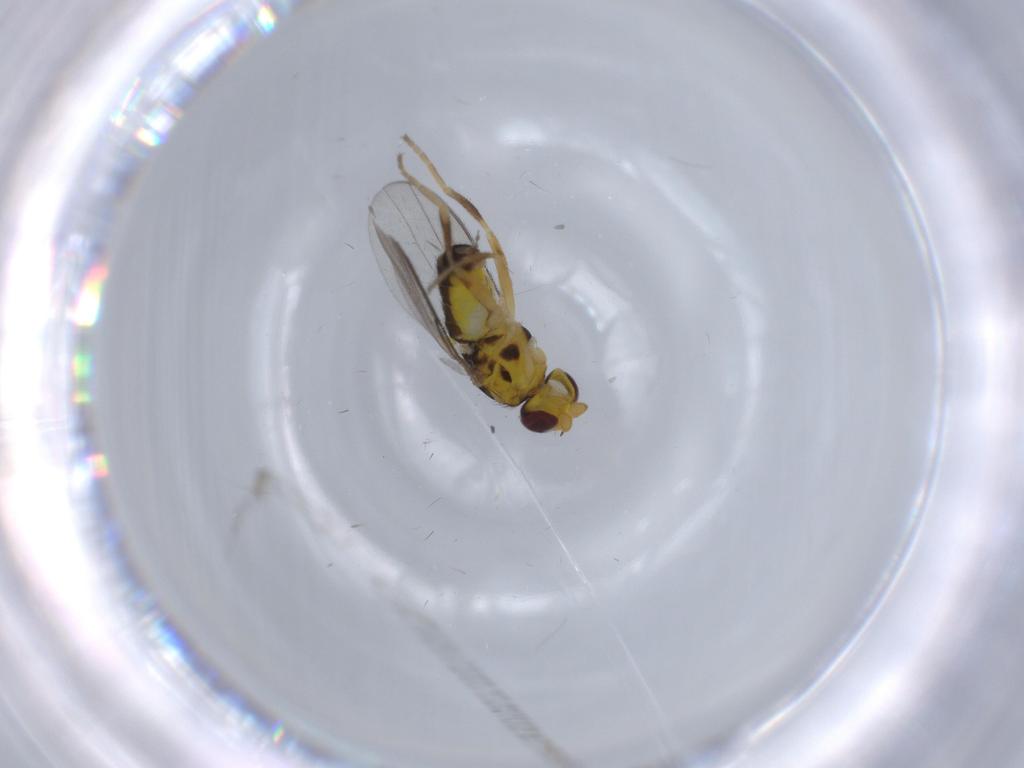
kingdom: Animalia
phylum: Arthropoda
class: Insecta
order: Diptera
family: Chloropidae
